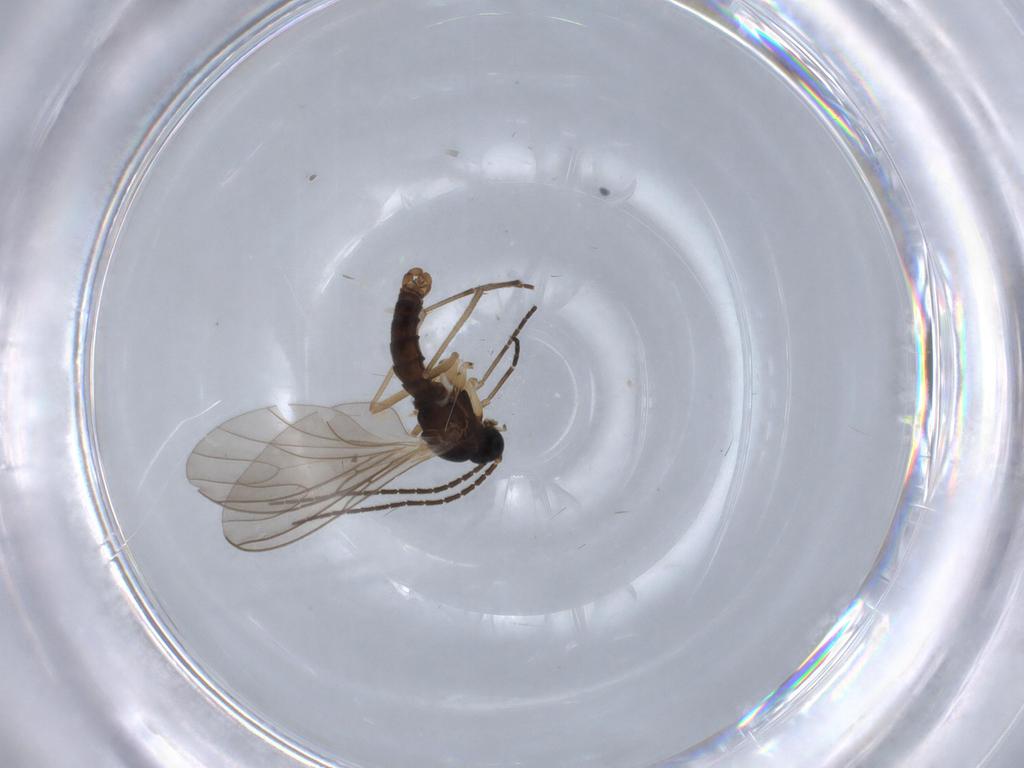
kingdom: Animalia
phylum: Arthropoda
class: Insecta
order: Diptera
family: Sciaridae
